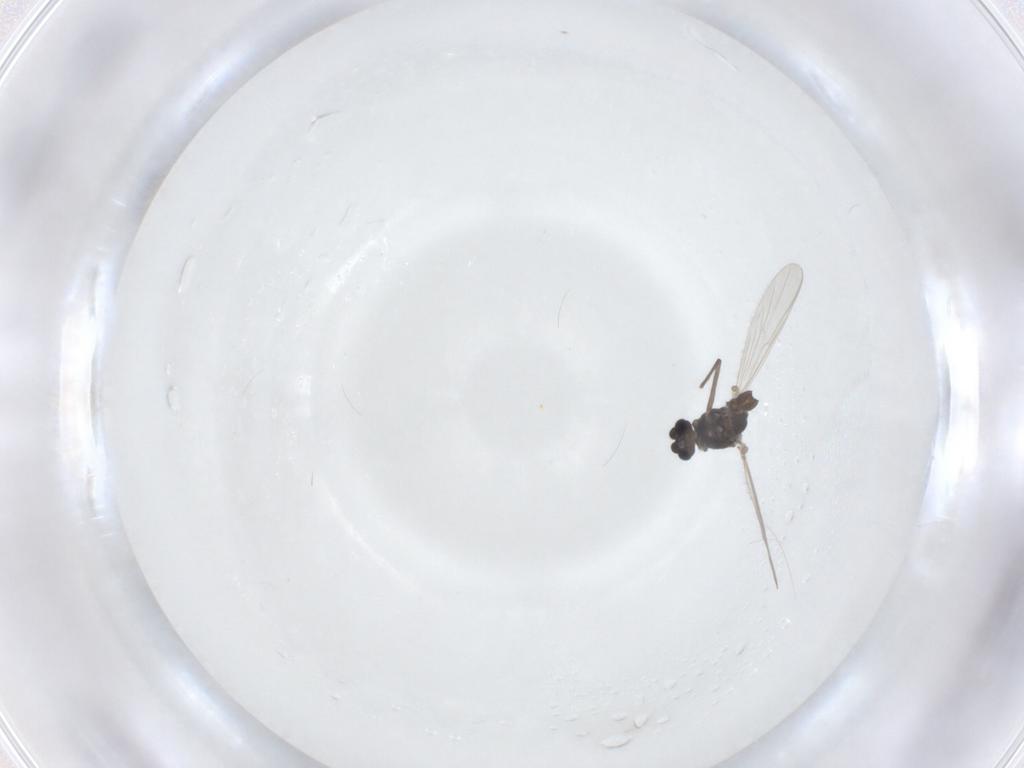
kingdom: Animalia
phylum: Arthropoda
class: Insecta
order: Diptera
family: Chironomidae
